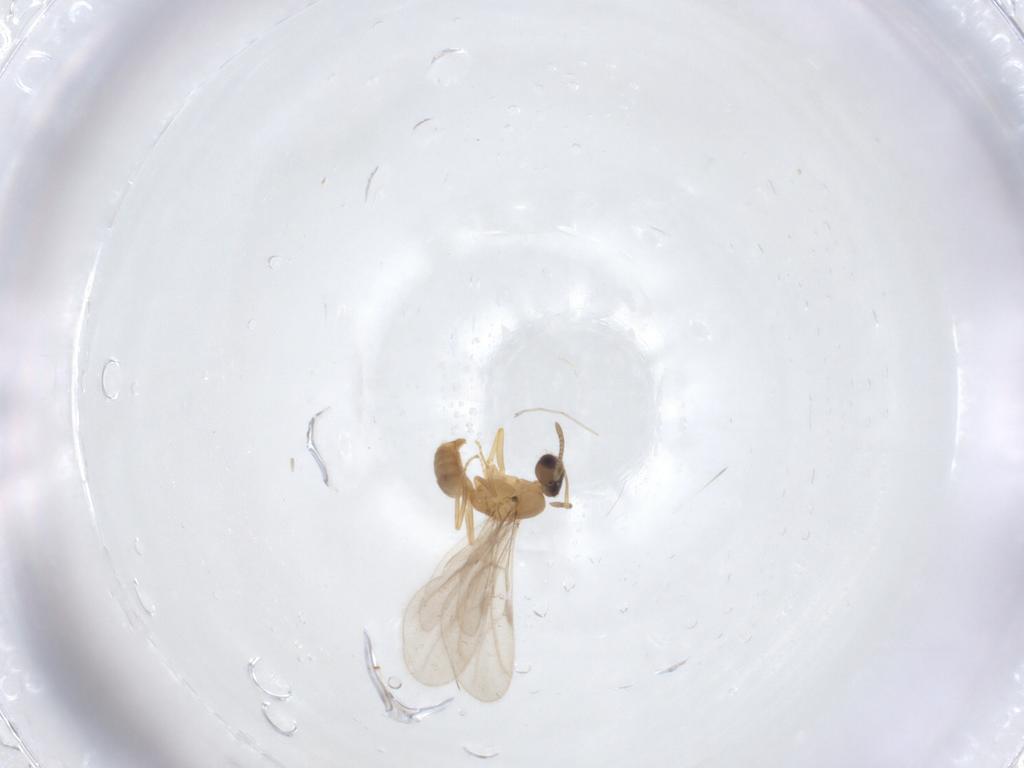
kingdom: Animalia
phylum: Arthropoda
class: Insecta
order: Hymenoptera
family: Formicidae
